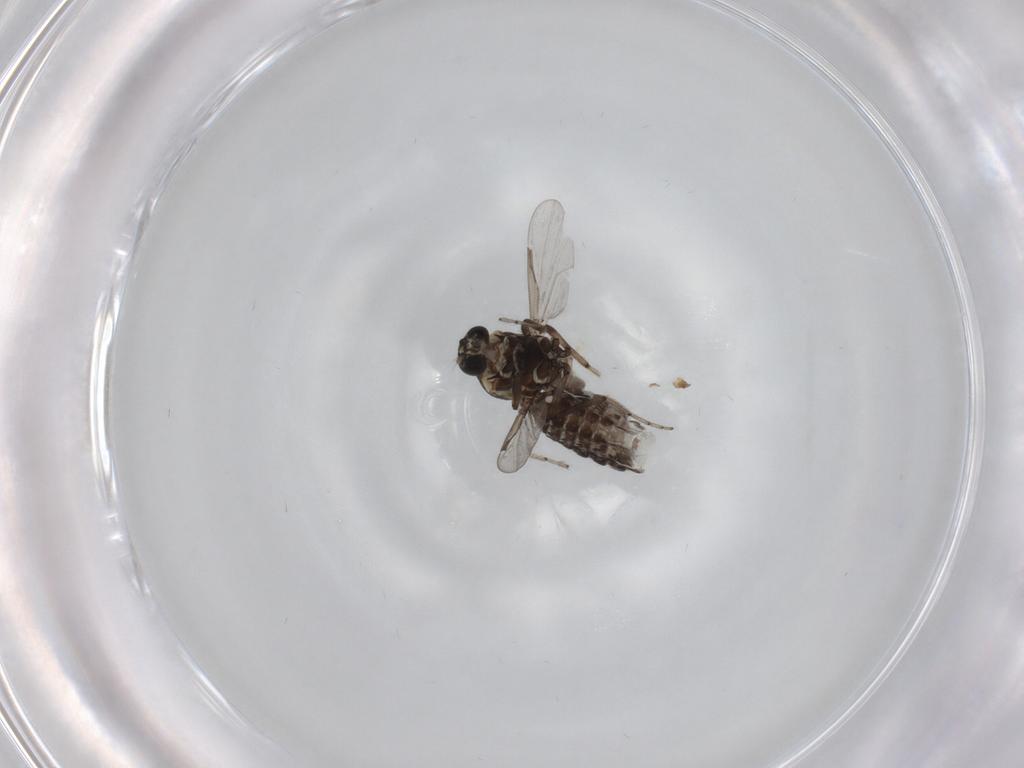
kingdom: Animalia
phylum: Arthropoda
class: Insecta
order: Diptera
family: Ceratopogonidae
